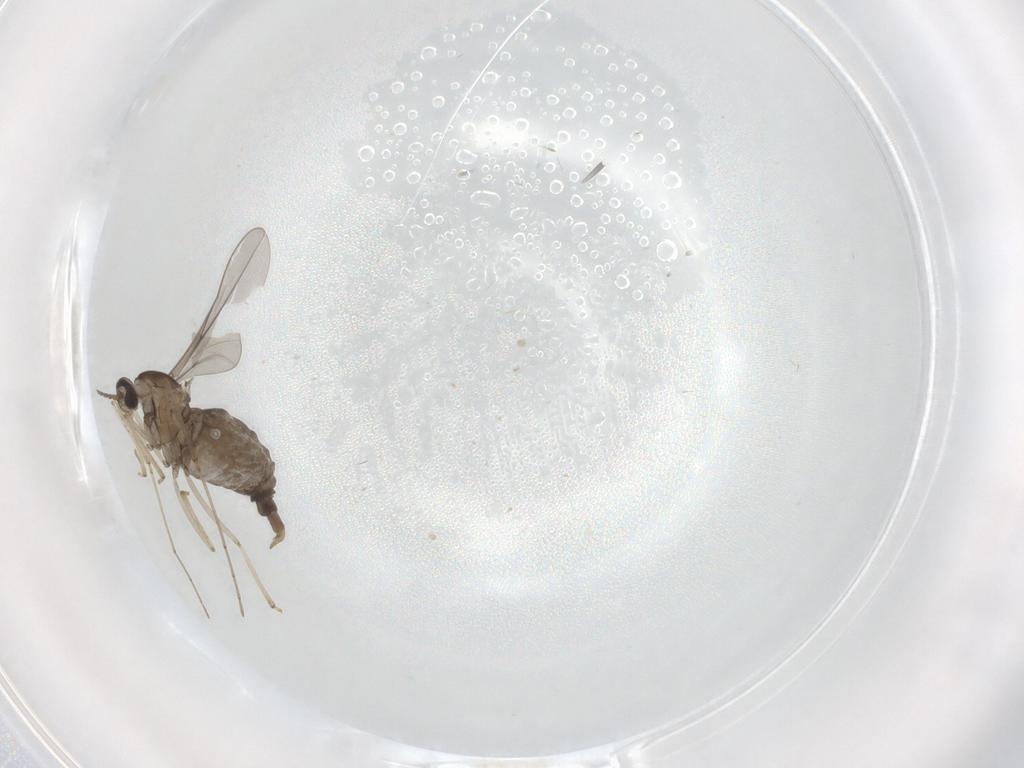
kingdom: Animalia
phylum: Arthropoda
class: Insecta
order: Diptera
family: Cecidomyiidae
